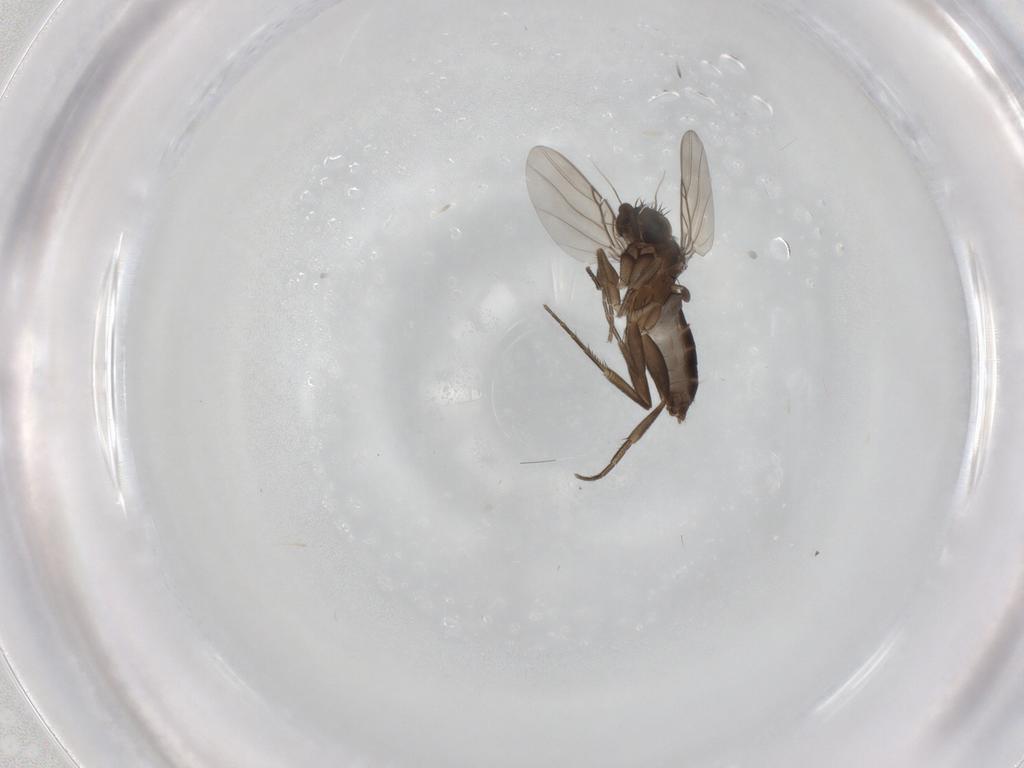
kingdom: Animalia
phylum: Arthropoda
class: Insecta
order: Diptera
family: Phoridae
